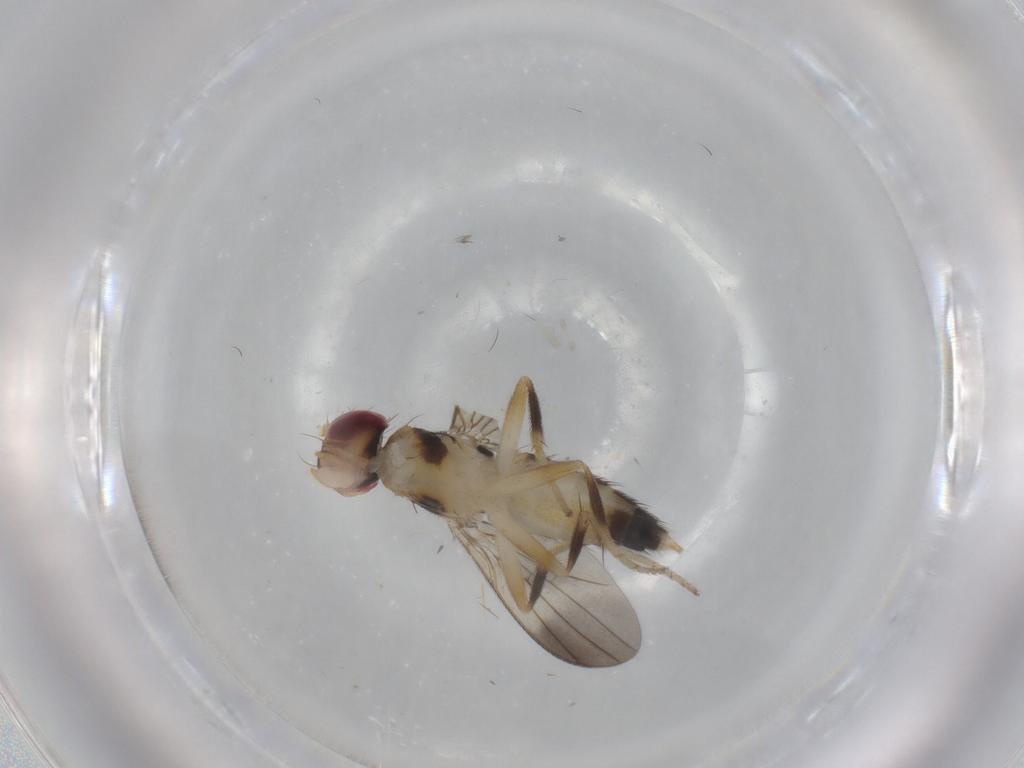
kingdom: Animalia
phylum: Arthropoda
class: Insecta
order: Diptera
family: Clusiidae
